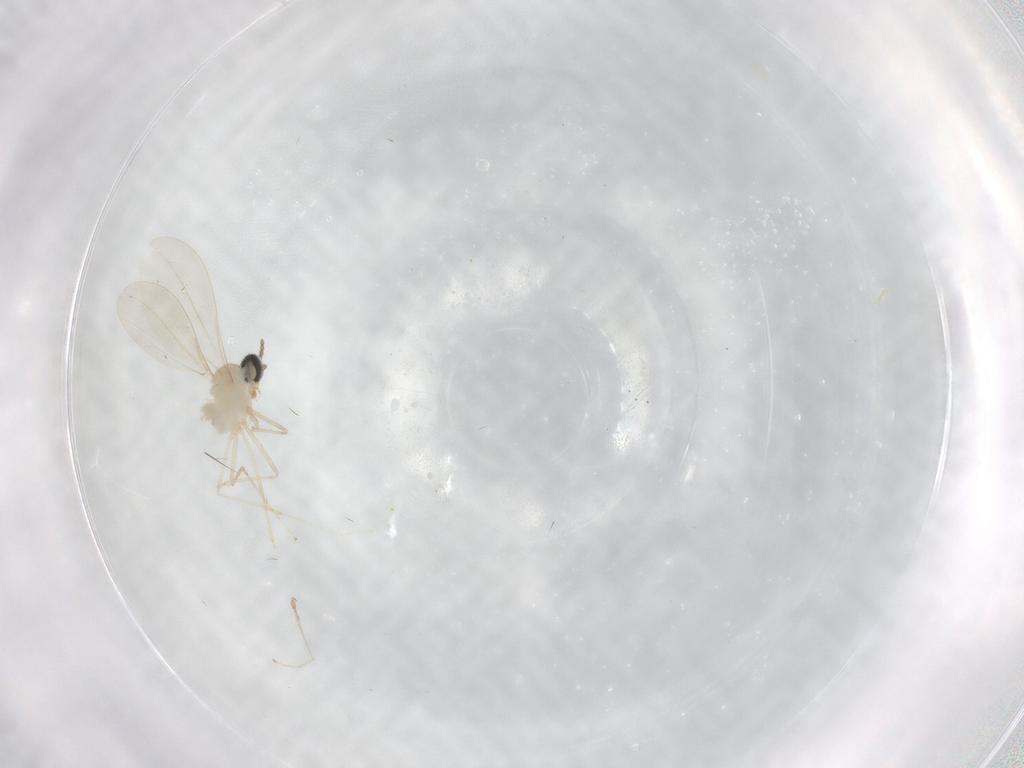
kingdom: Animalia
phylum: Arthropoda
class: Insecta
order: Diptera
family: Cecidomyiidae
